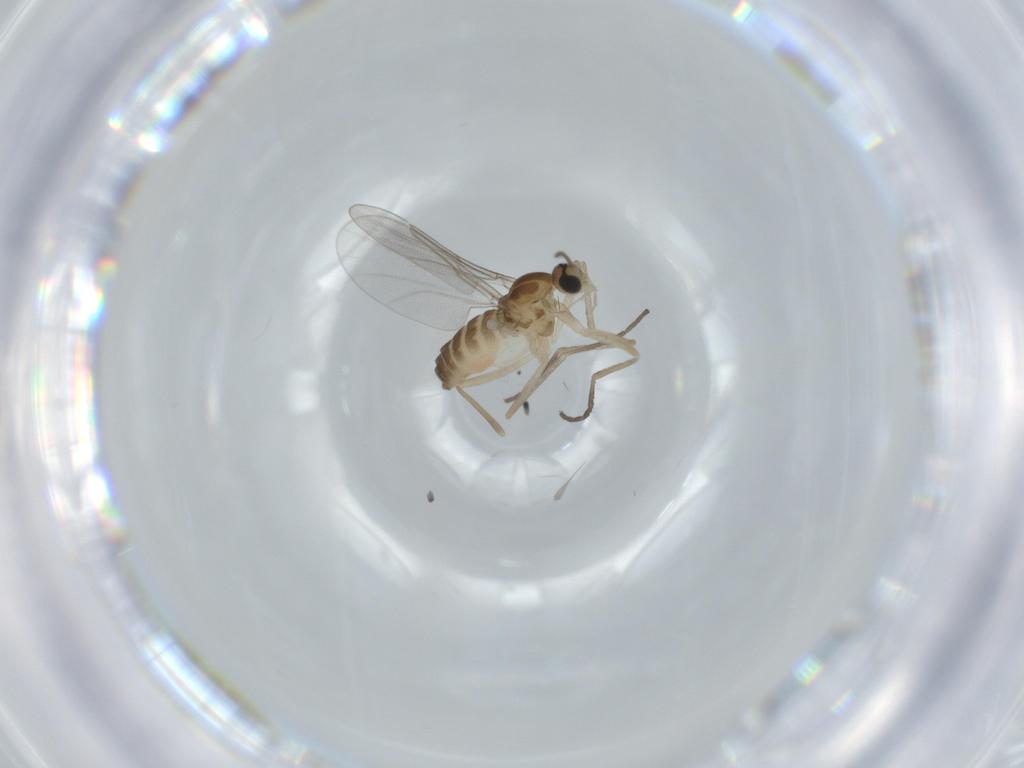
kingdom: Animalia
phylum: Arthropoda
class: Insecta
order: Diptera
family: Cecidomyiidae
